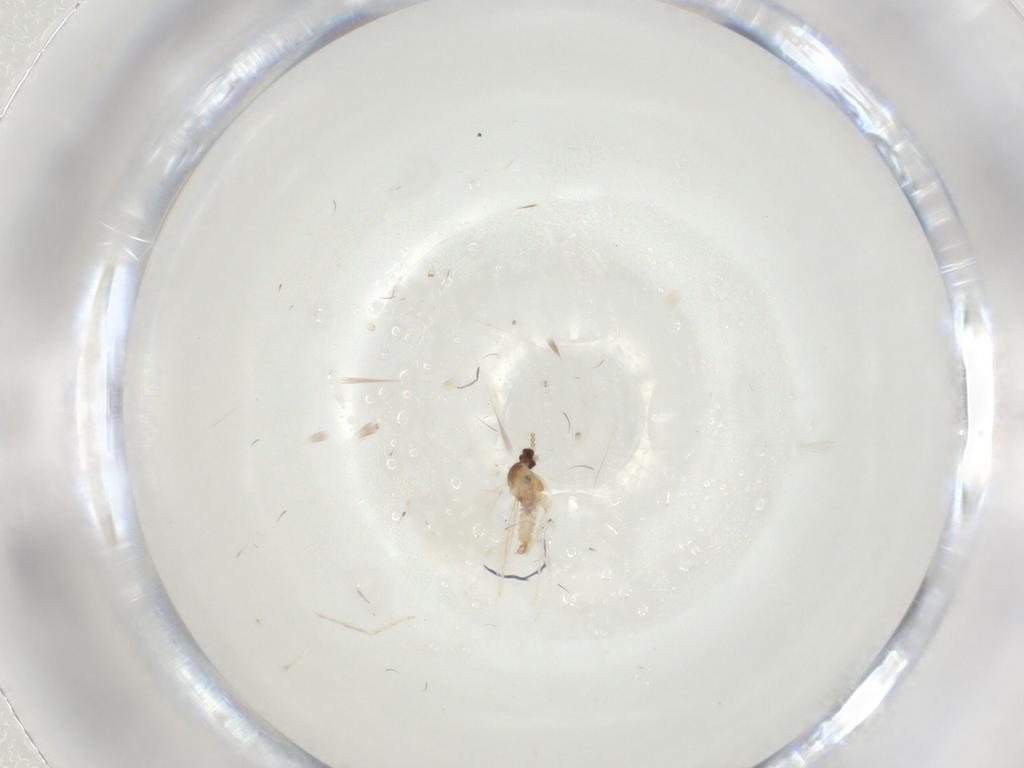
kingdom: Animalia
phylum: Arthropoda
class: Insecta
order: Diptera
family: Cecidomyiidae
